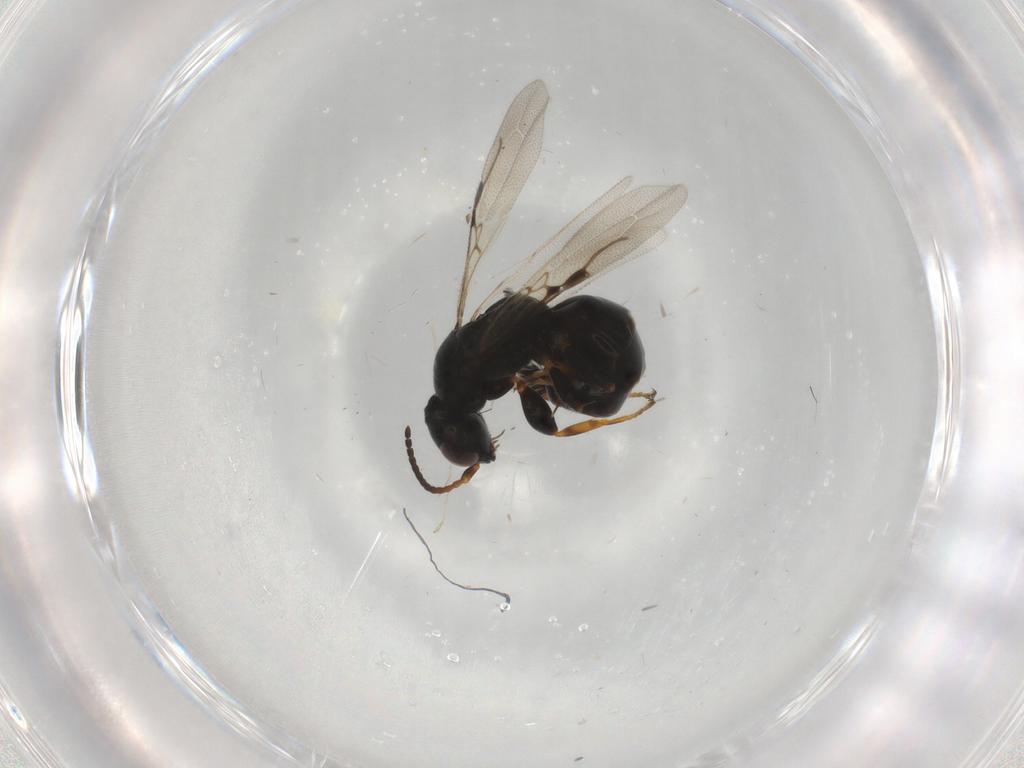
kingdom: Animalia
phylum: Arthropoda
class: Insecta
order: Hymenoptera
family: Bethylidae
